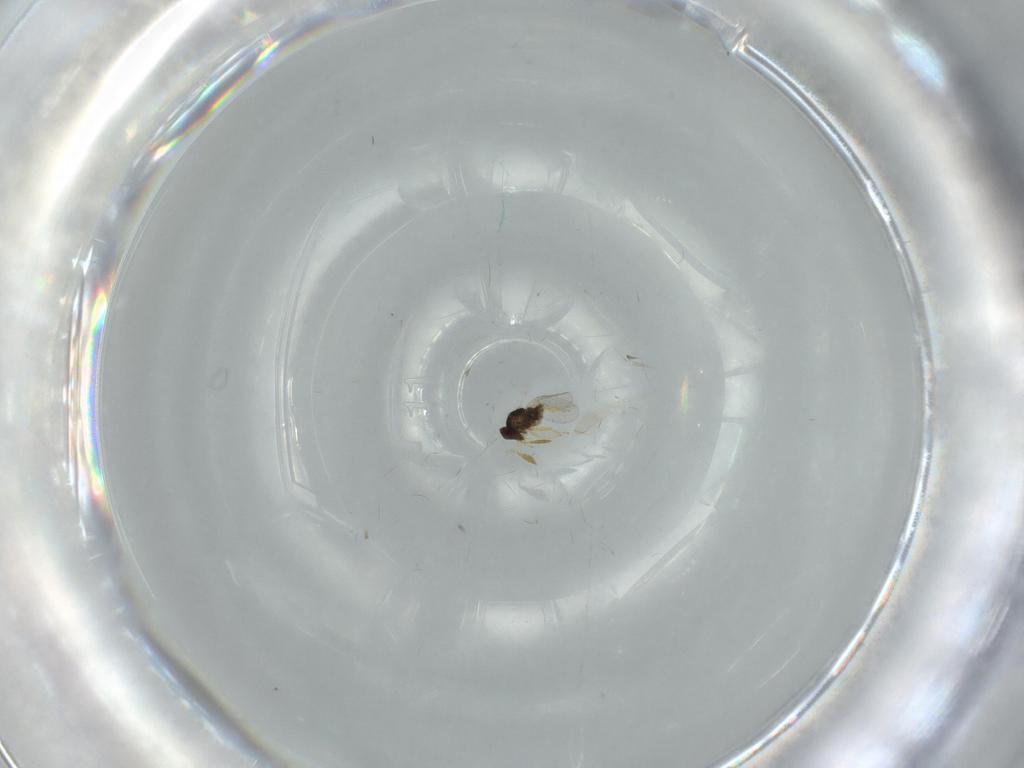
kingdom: Animalia
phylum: Arthropoda
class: Insecta
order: Hymenoptera
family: Encyrtidae
